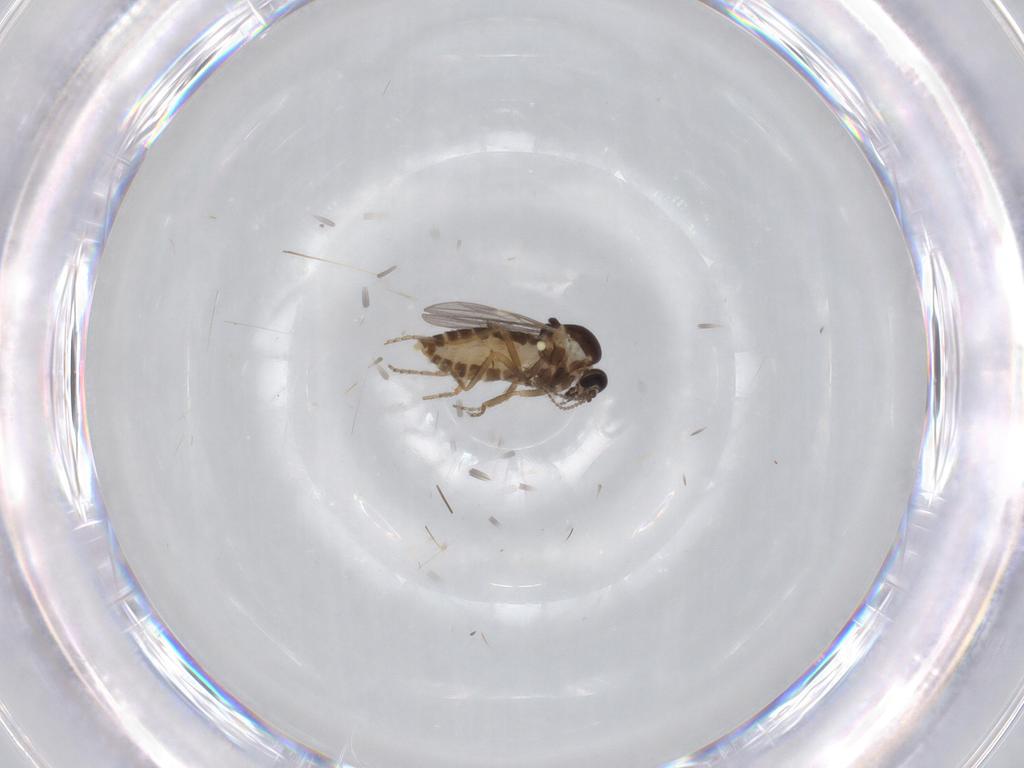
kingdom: Animalia
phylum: Arthropoda
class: Insecta
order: Diptera
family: Ceratopogonidae
